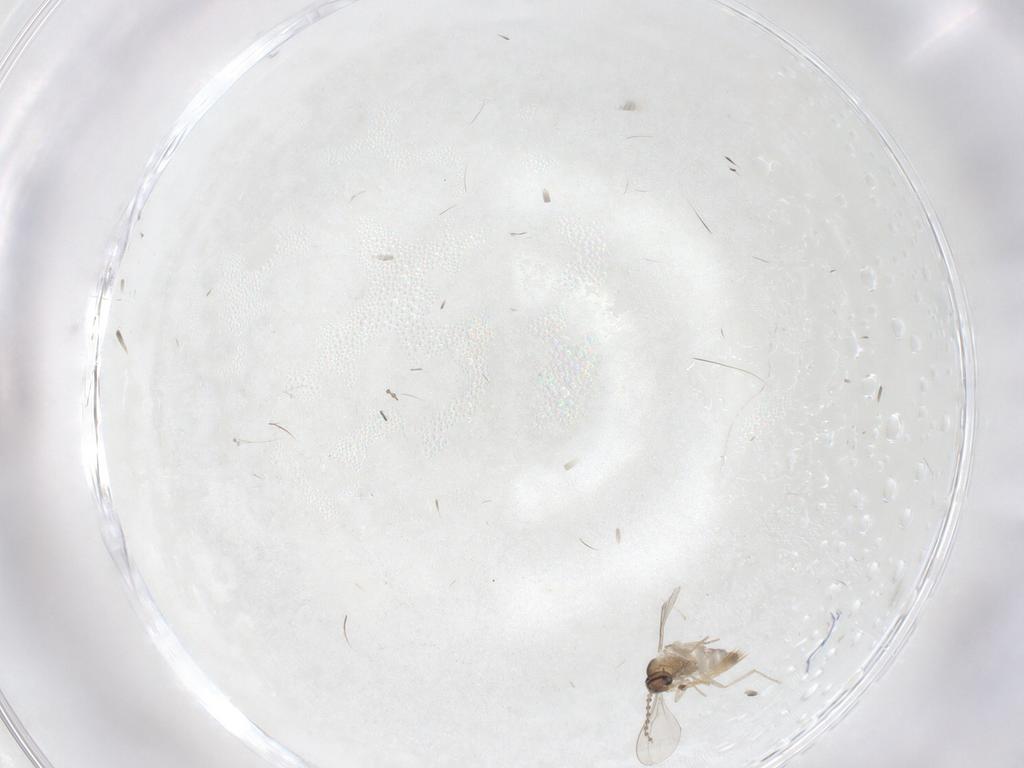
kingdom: Animalia
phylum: Arthropoda
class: Insecta
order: Diptera
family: Cecidomyiidae
